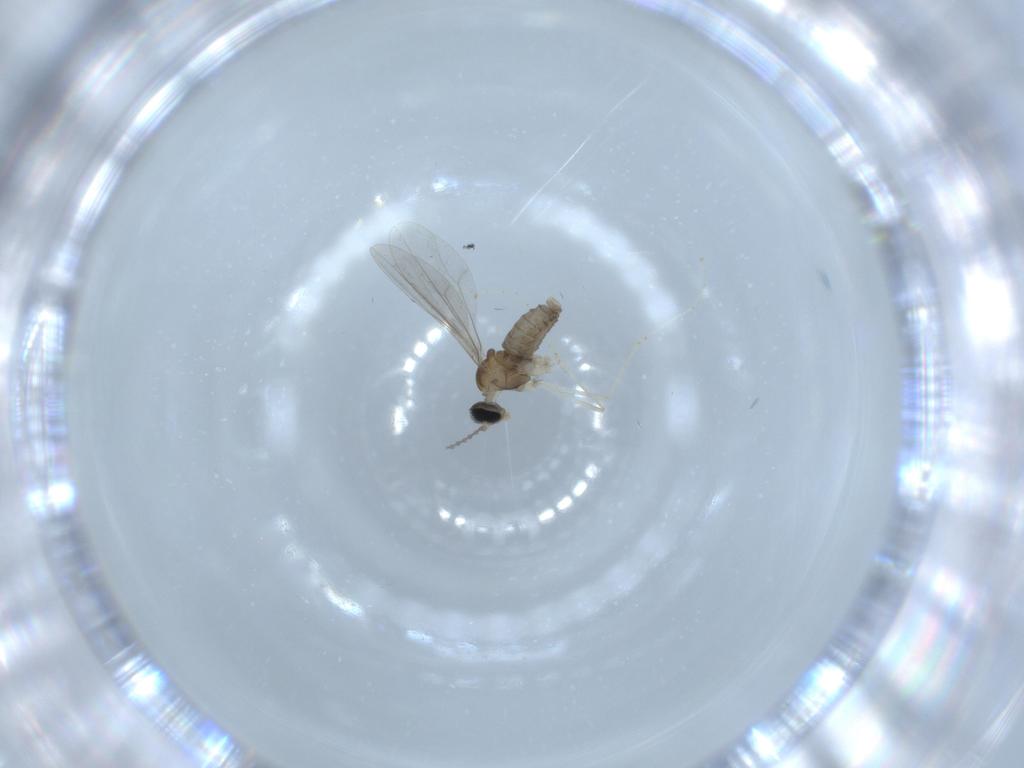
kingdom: Animalia
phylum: Arthropoda
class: Insecta
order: Diptera
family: Cecidomyiidae
